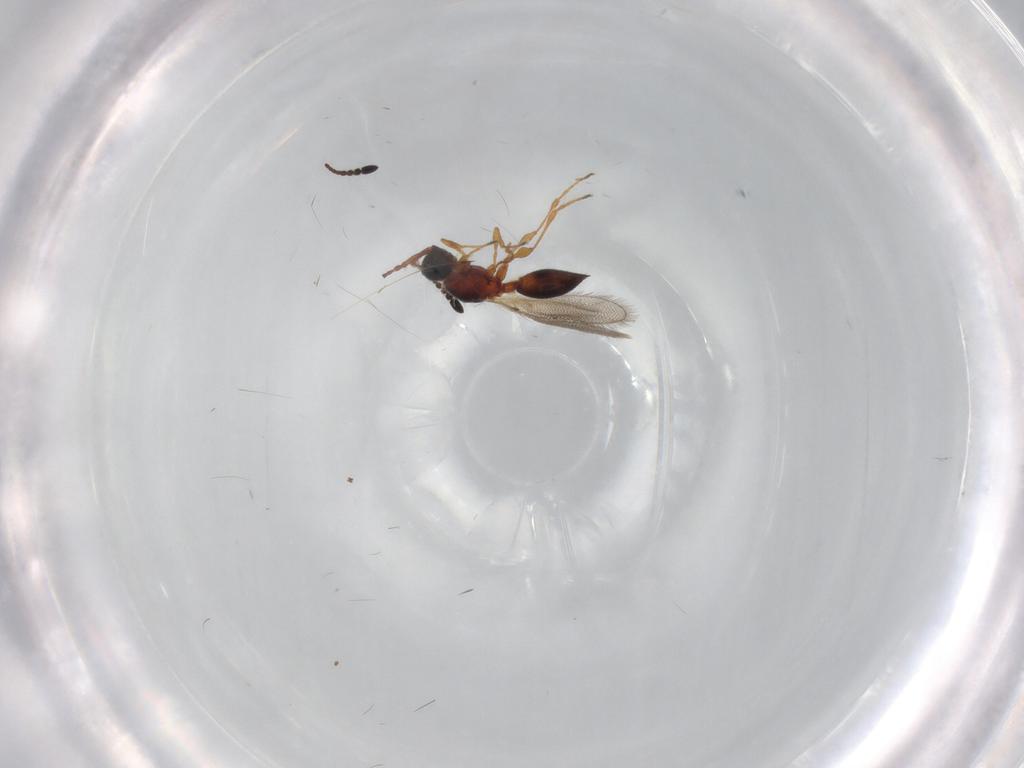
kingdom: Animalia
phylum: Arthropoda
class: Insecta
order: Hymenoptera
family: Diapriidae
